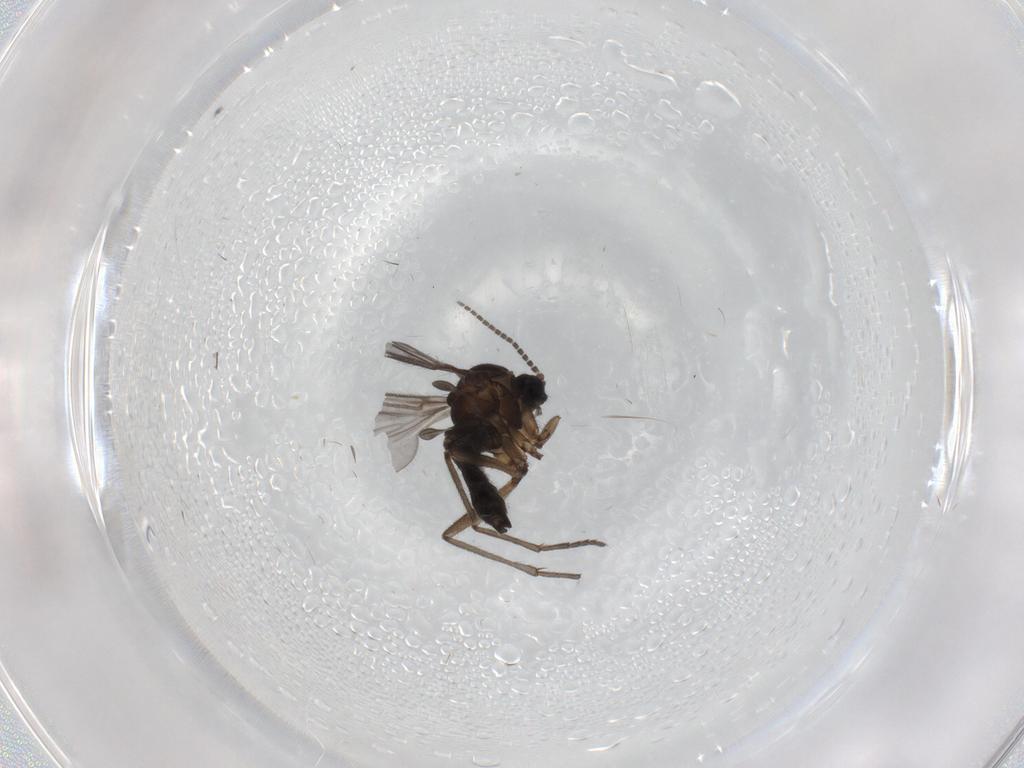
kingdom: Animalia
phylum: Arthropoda
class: Insecta
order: Diptera
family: Sciaridae
